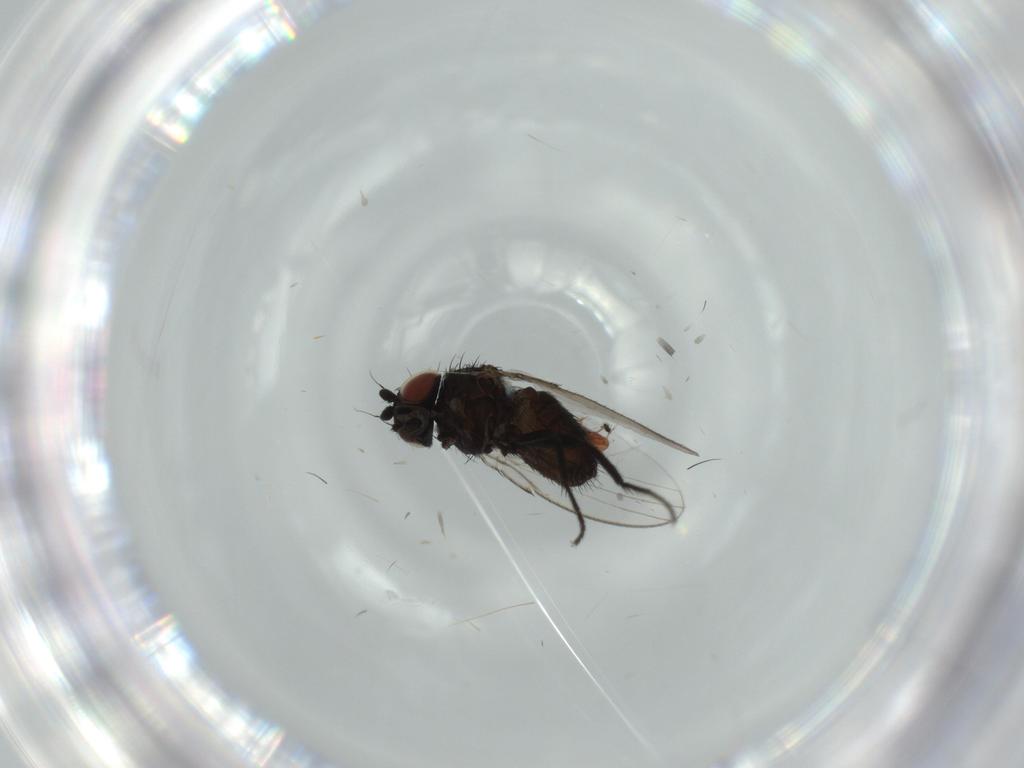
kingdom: Animalia
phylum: Arthropoda
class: Insecta
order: Diptera
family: Milichiidae
